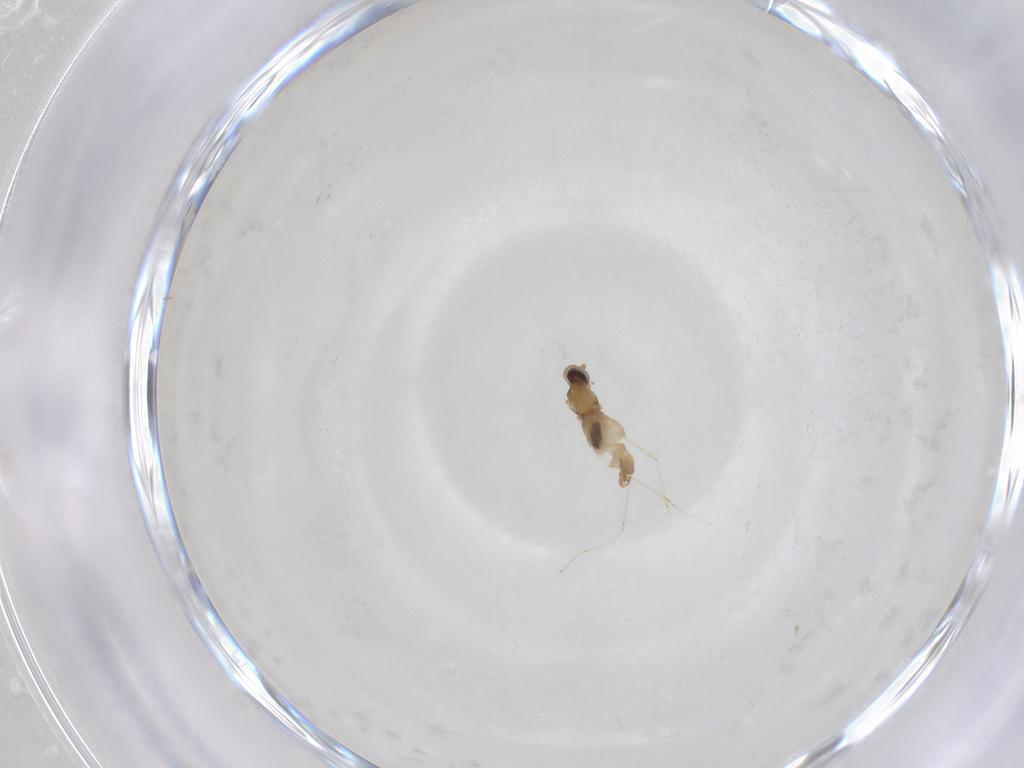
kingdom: Animalia
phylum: Arthropoda
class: Insecta
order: Diptera
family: Cecidomyiidae
